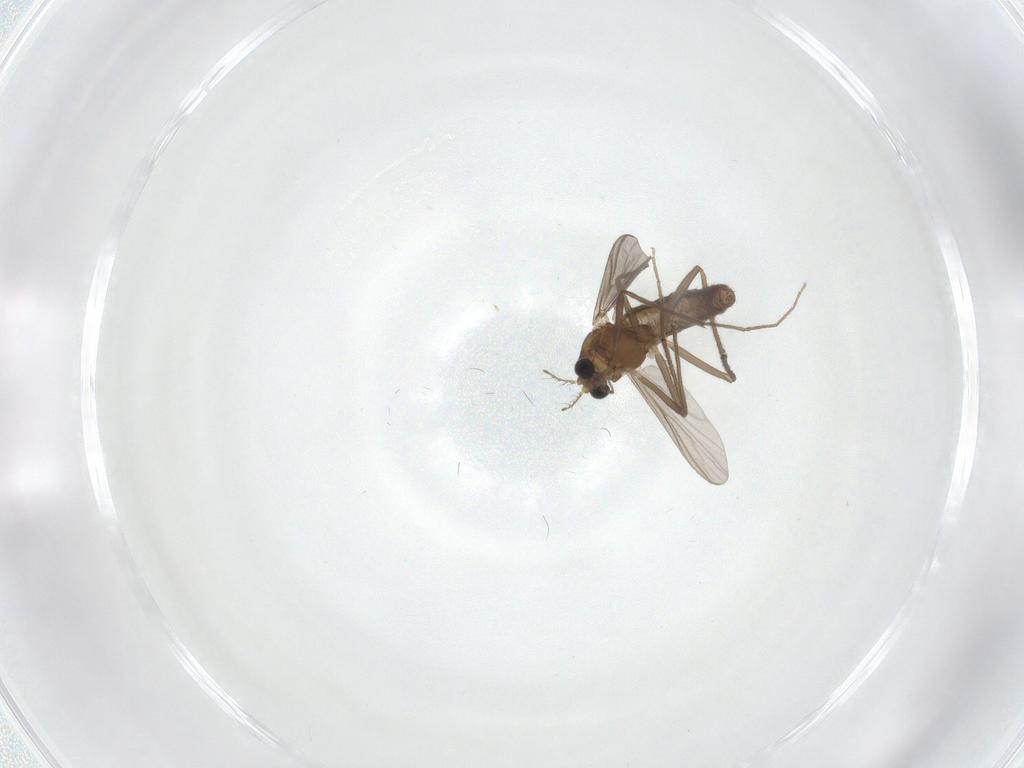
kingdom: Animalia
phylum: Arthropoda
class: Insecta
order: Diptera
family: Chironomidae
